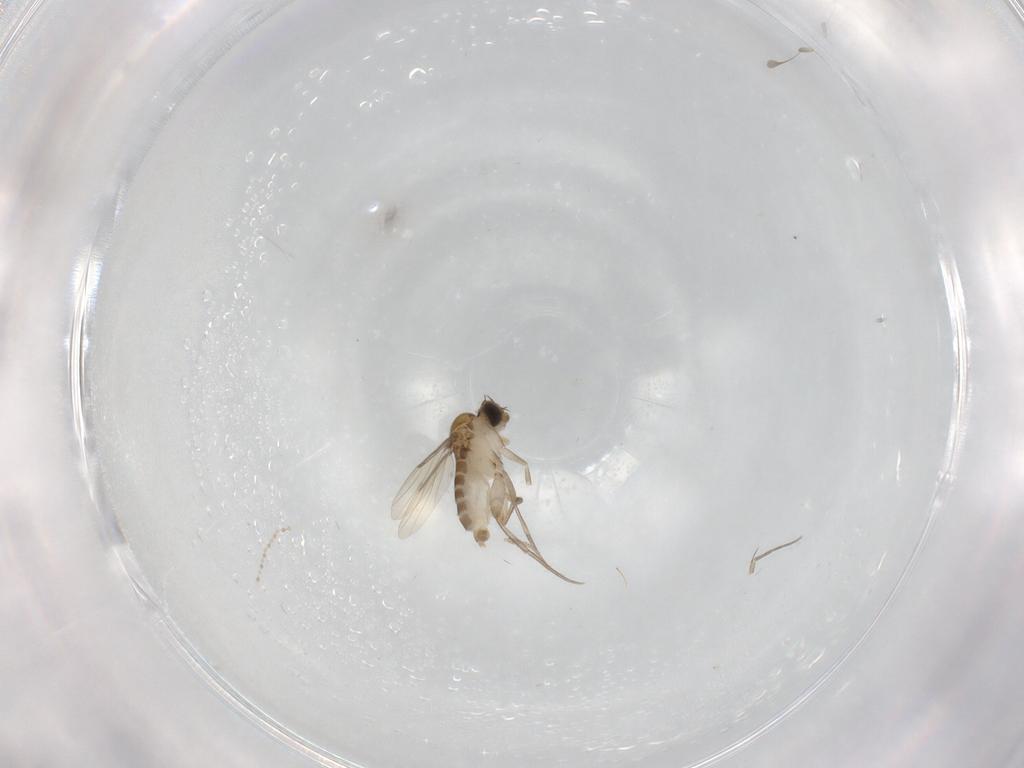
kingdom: Animalia
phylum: Arthropoda
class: Insecta
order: Diptera
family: Phoridae
